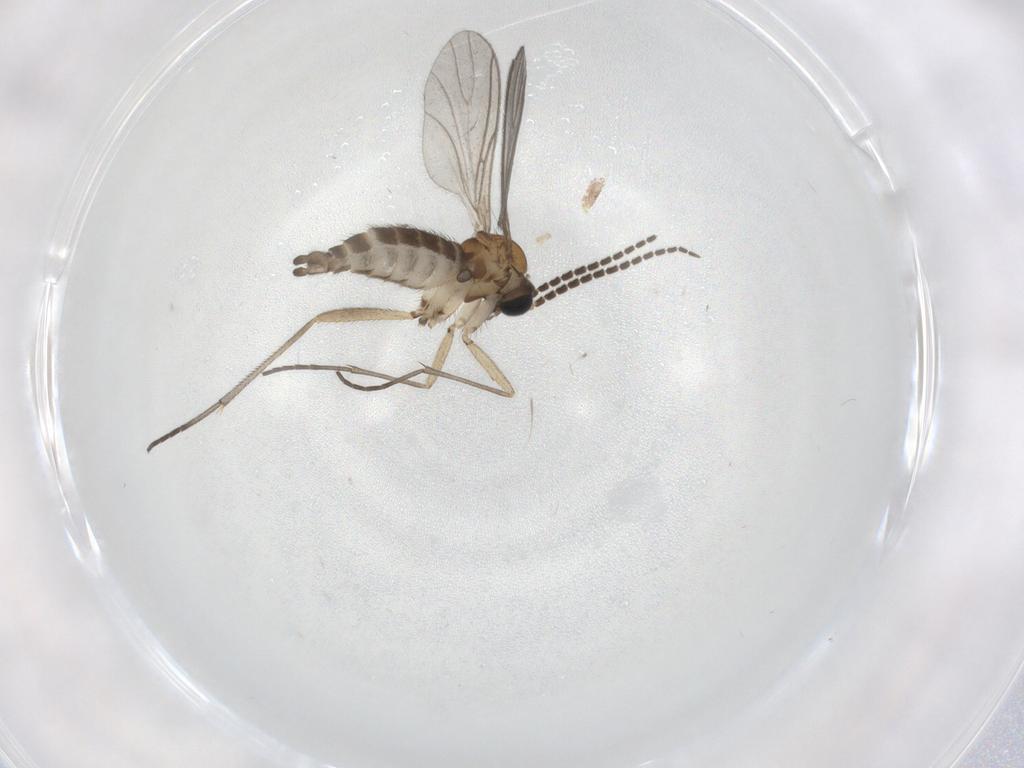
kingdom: Animalia
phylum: Arthropoda
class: Insecta
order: Diptera
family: Sciaridae
